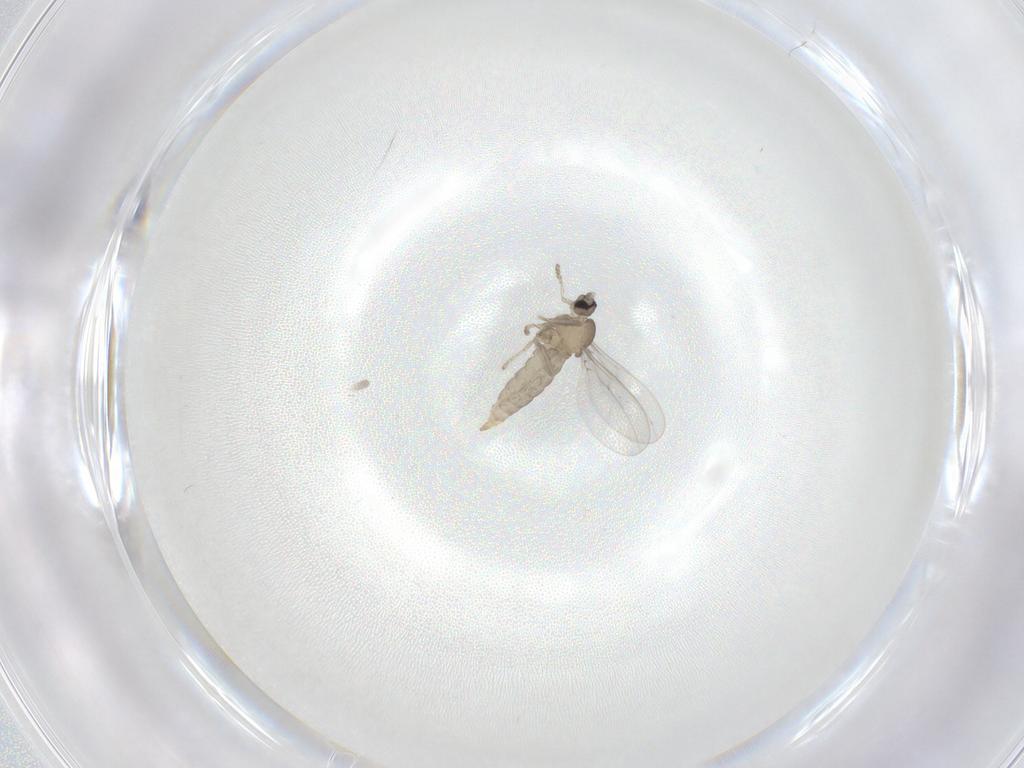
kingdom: Animalia
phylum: Arthropoda
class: Insecta
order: Diptera
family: Cecidomyiidae
